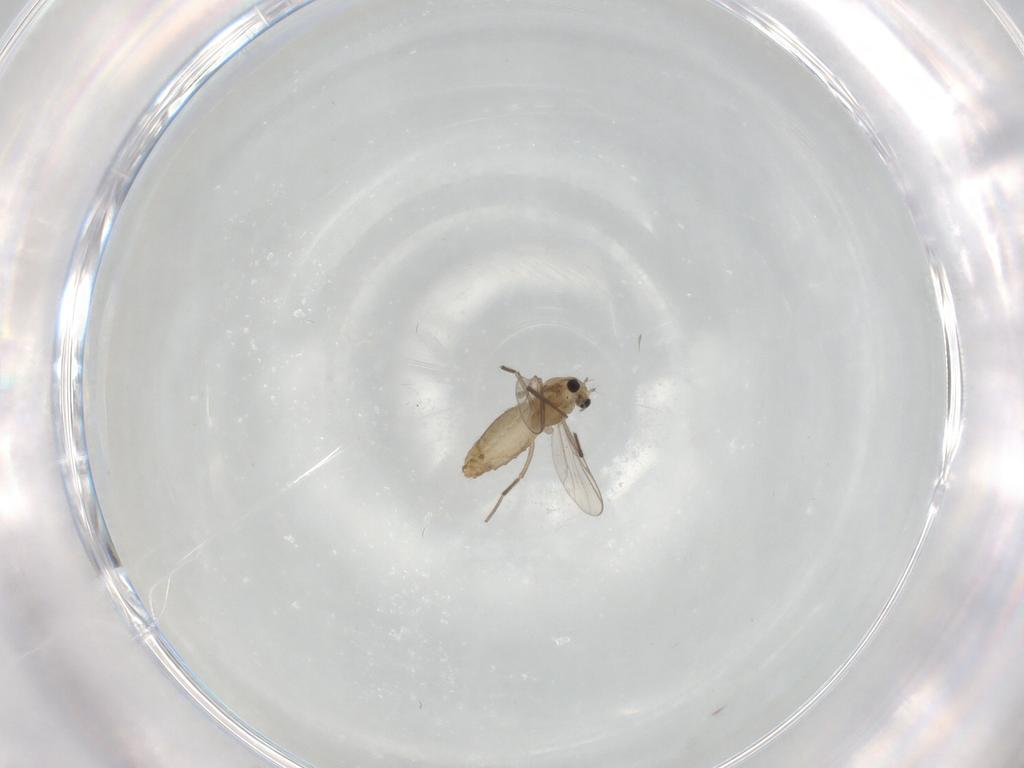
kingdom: Animalia
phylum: Arthropoda
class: Insecta
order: Diptera
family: Chironomidae
